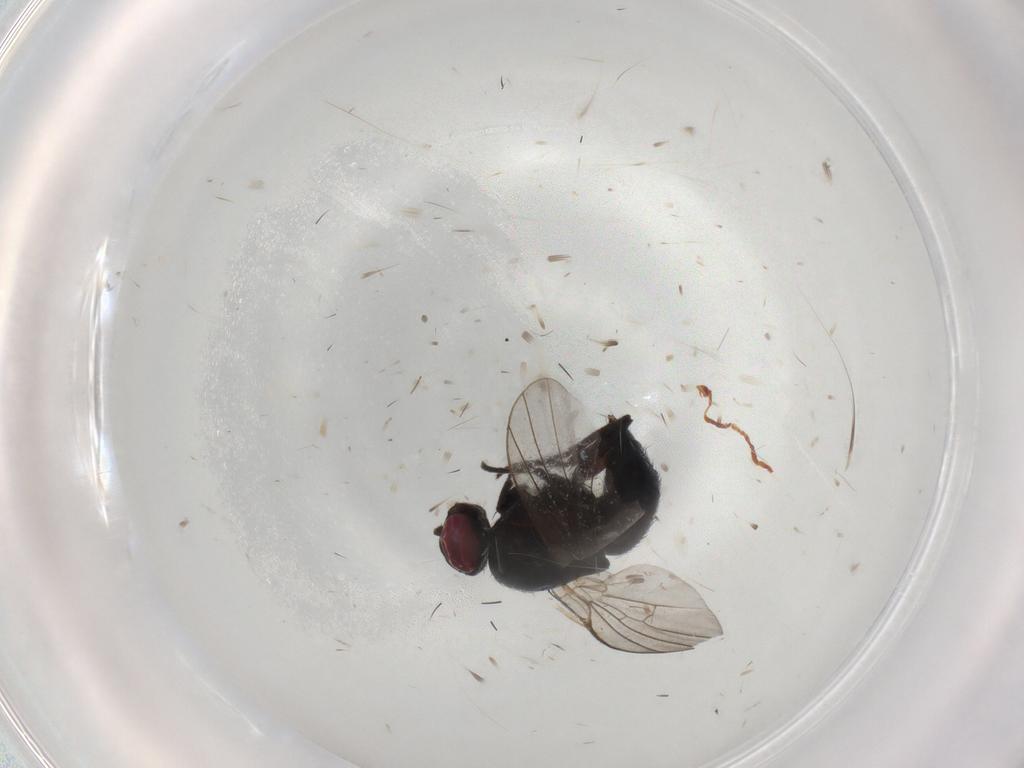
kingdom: Animalia
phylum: Arthropoda
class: Insecta
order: Diptera
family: Agromyzidae
